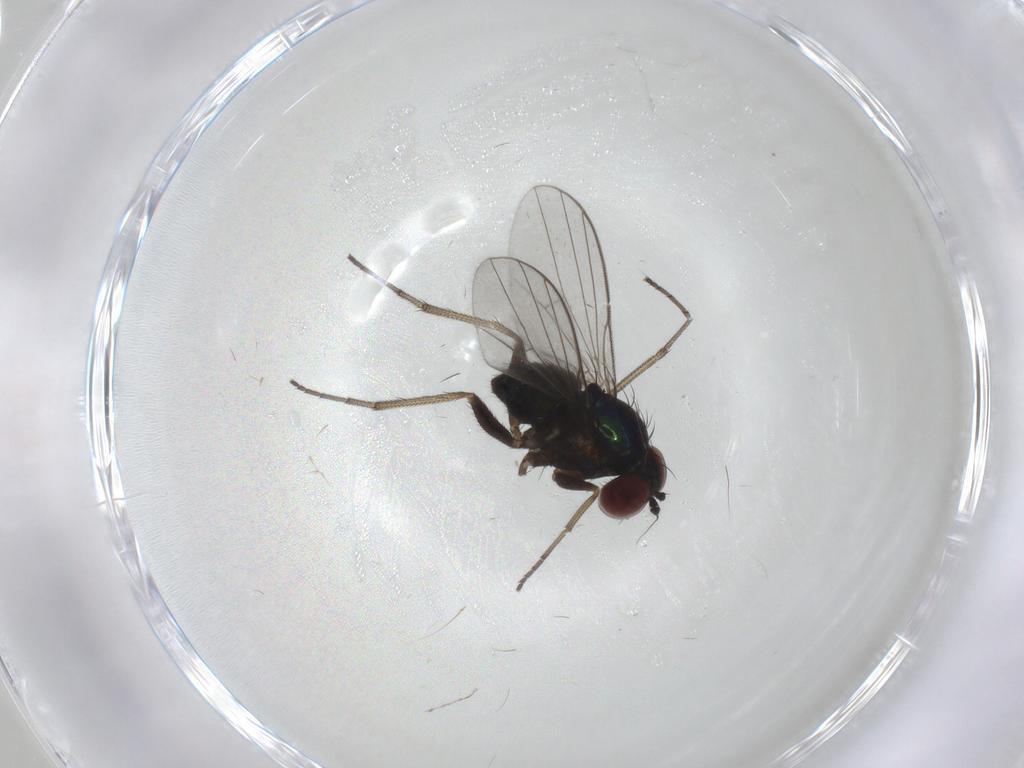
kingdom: Animalia
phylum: Arthropoda
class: Insecta
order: Diptera
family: Dolichopodidae
